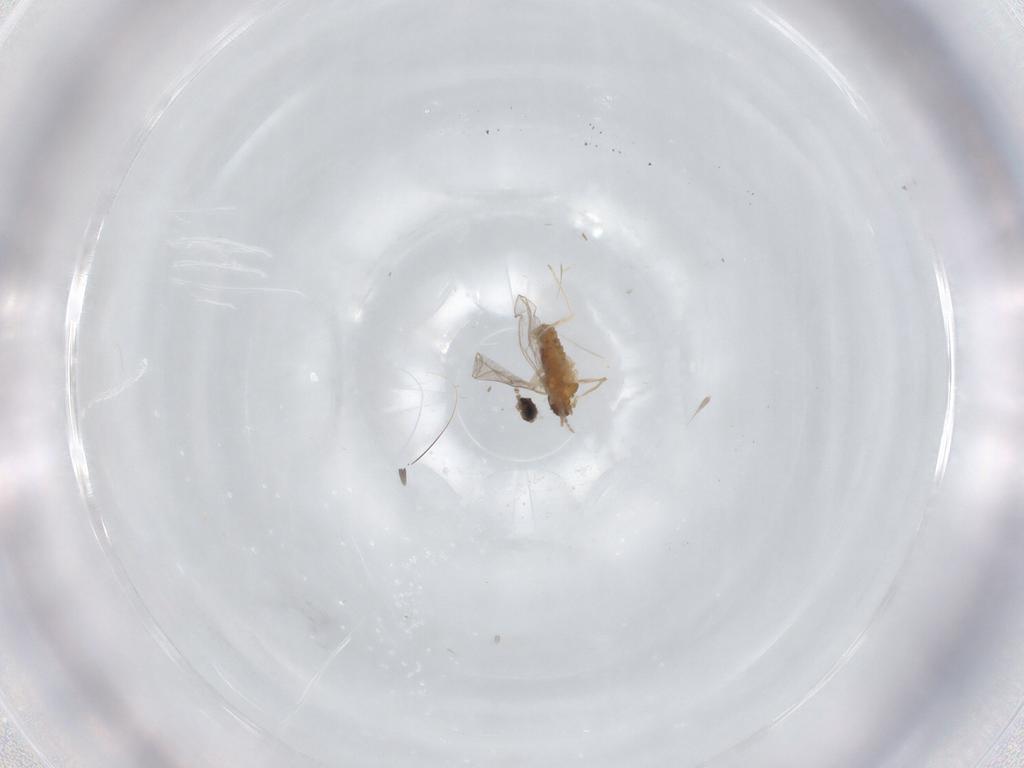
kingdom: Animalia
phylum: Arthropoda
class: Insecta
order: Diptera
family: Cecidomyiidae
